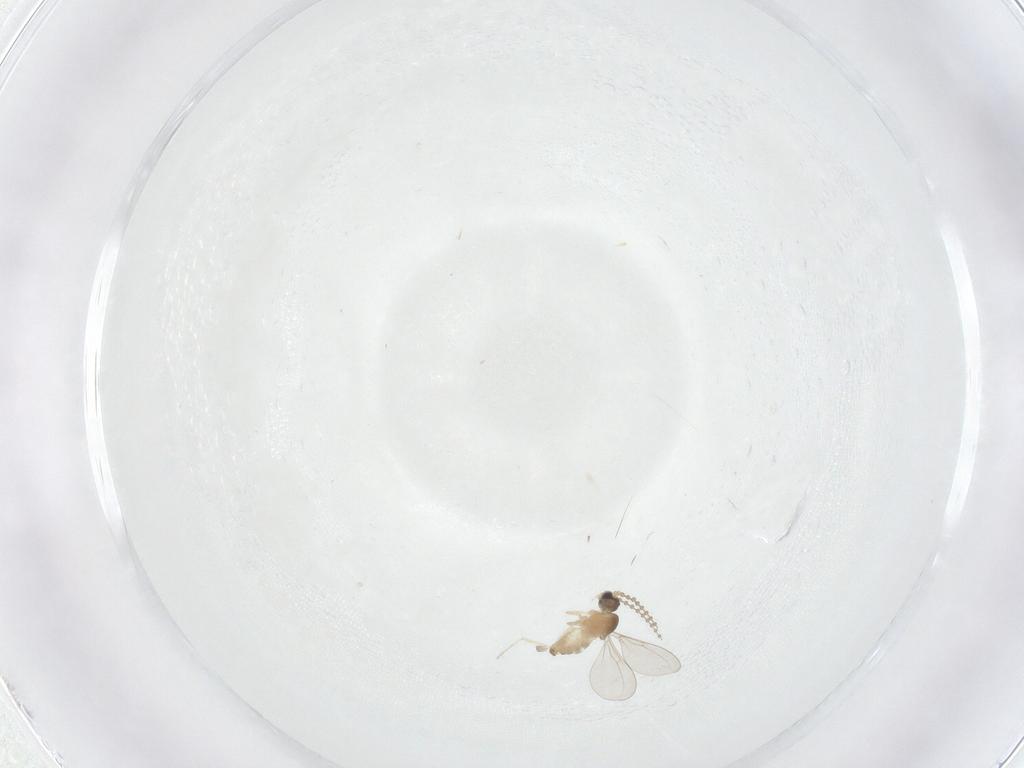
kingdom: Animalia
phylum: Arthropoda
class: Insecta
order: Diptera
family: Cecidomyiidae
